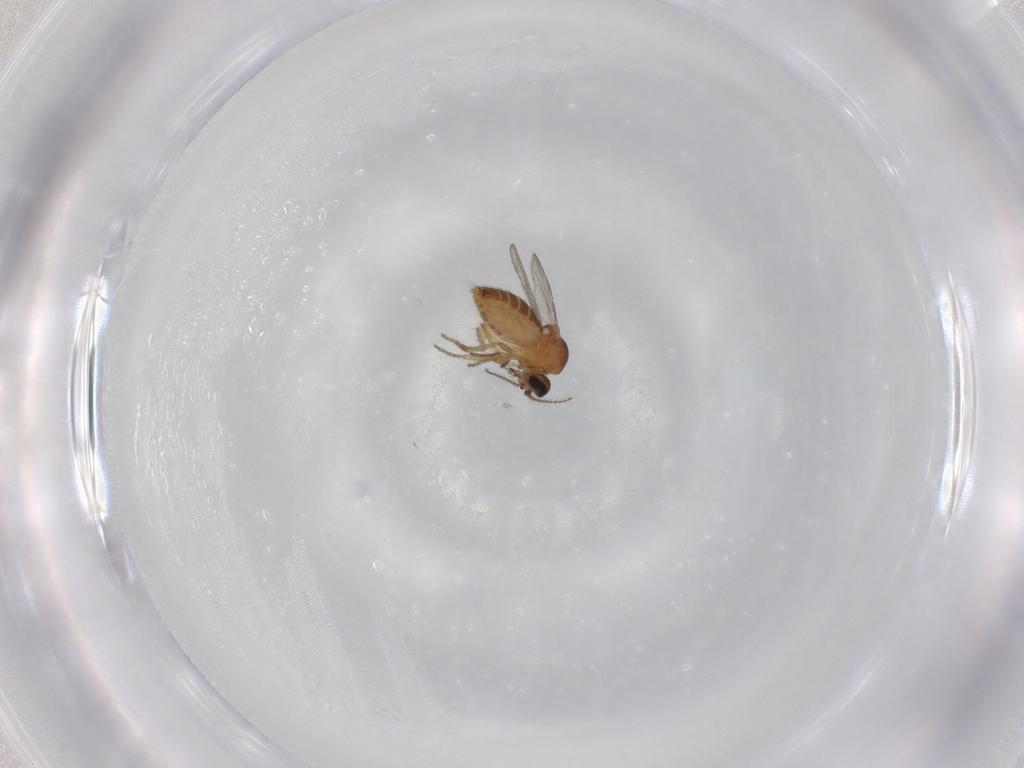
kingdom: Animalia
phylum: Arthropoda
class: Insecta
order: Diptera
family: Ceratopogonidae
